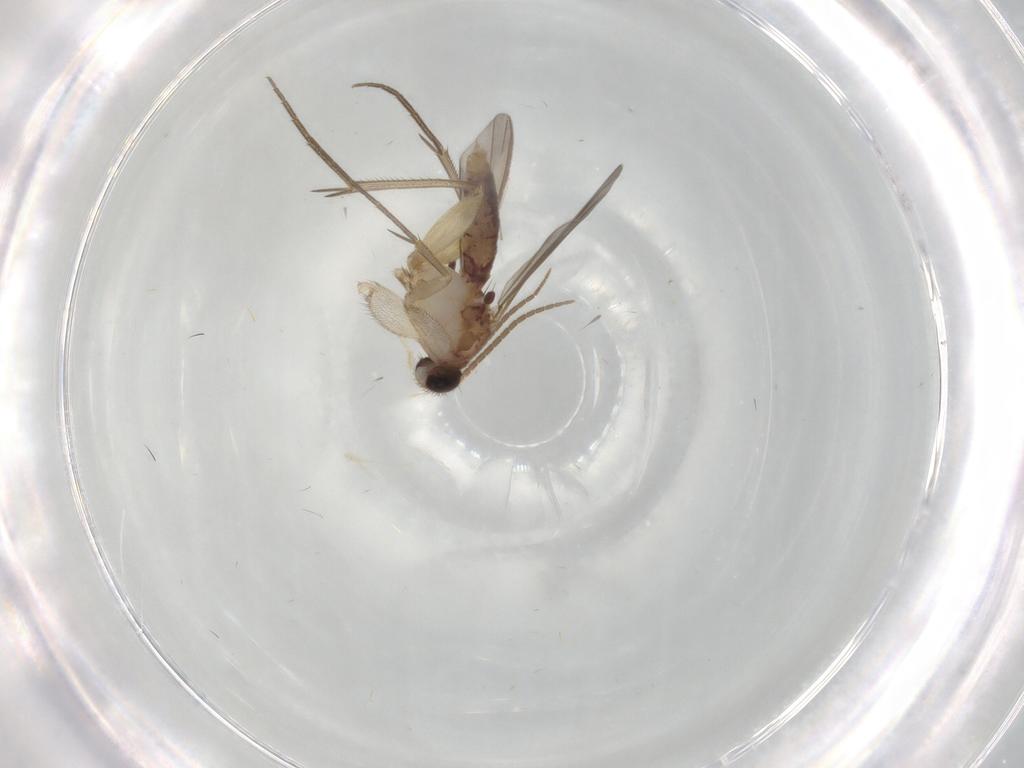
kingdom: Animalia
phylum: Arthropoda
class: Insecta
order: Diptera
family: Mycetophilidae
